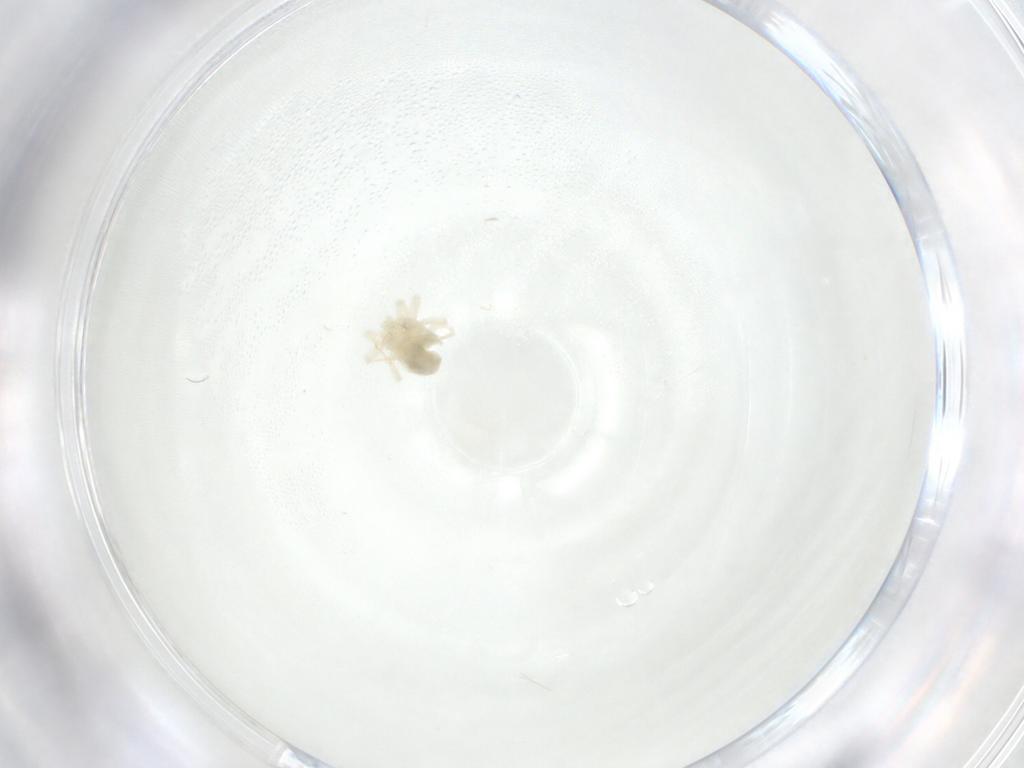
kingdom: Animalia
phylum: Arthropoda
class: Arachnida
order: Trombidiformes
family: Eupodidae
